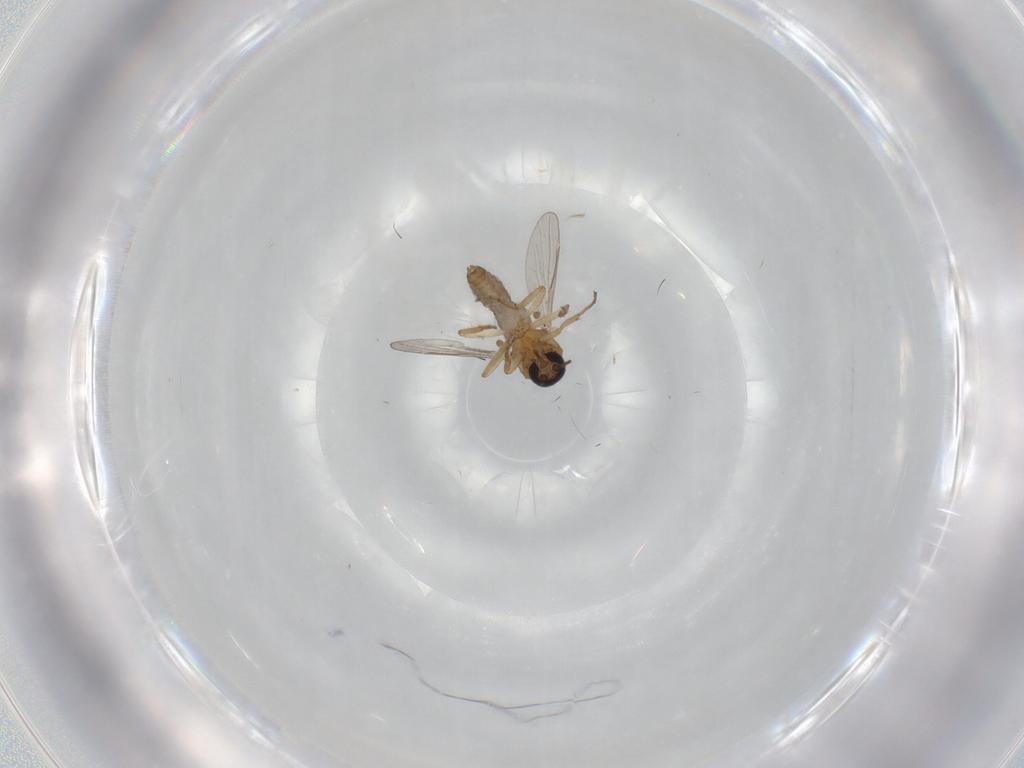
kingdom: Animalia
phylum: Arthropoda
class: Insecta
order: Diptera
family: Ceratopogonidae
